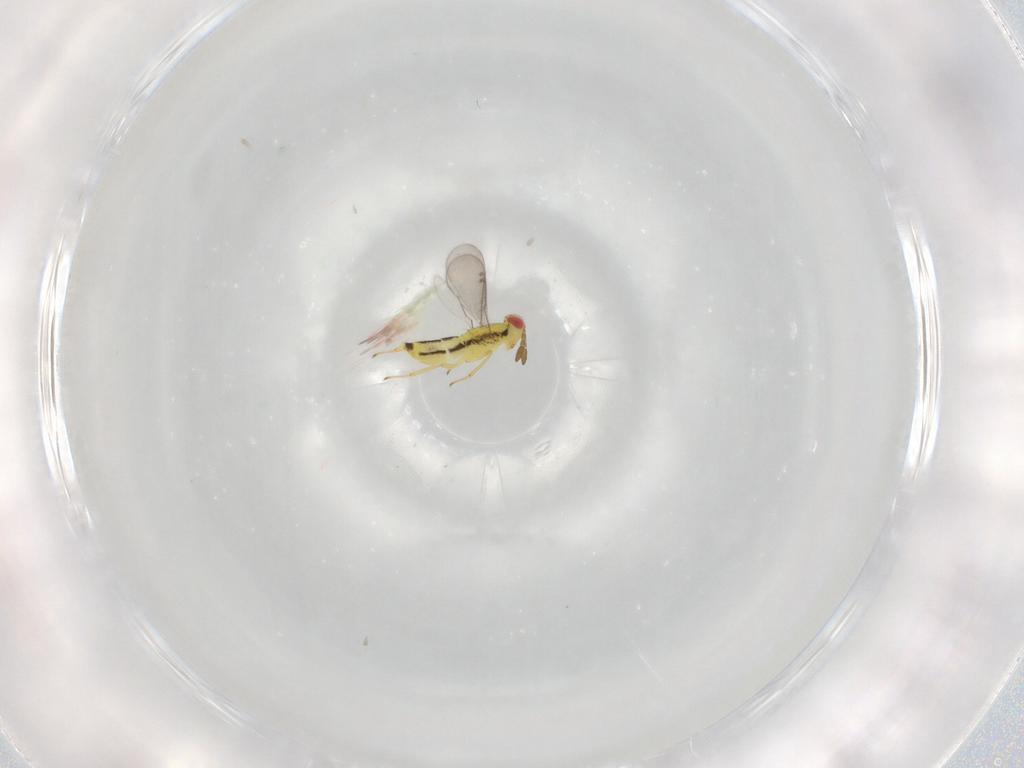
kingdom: Animalia
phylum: Arthropoda
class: Insecta
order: Hymenoptera
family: Aphelinidae
